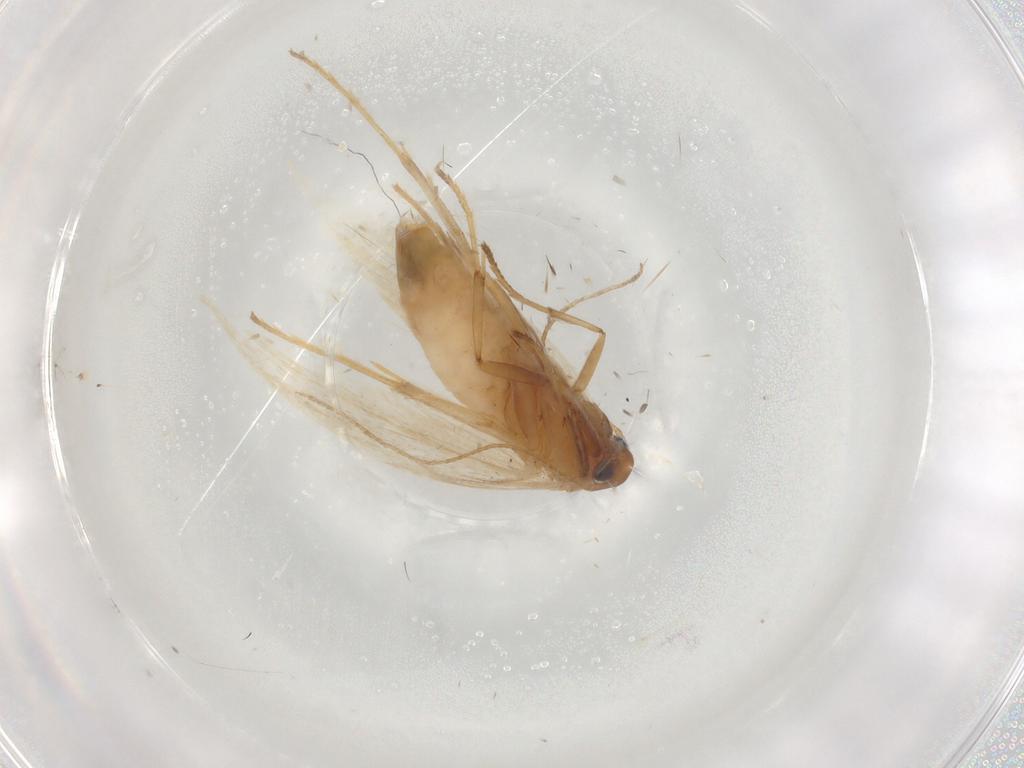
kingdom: Animalia
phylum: Arthropoda
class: Insecta
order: Lepidoptera
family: Gelechiidae
